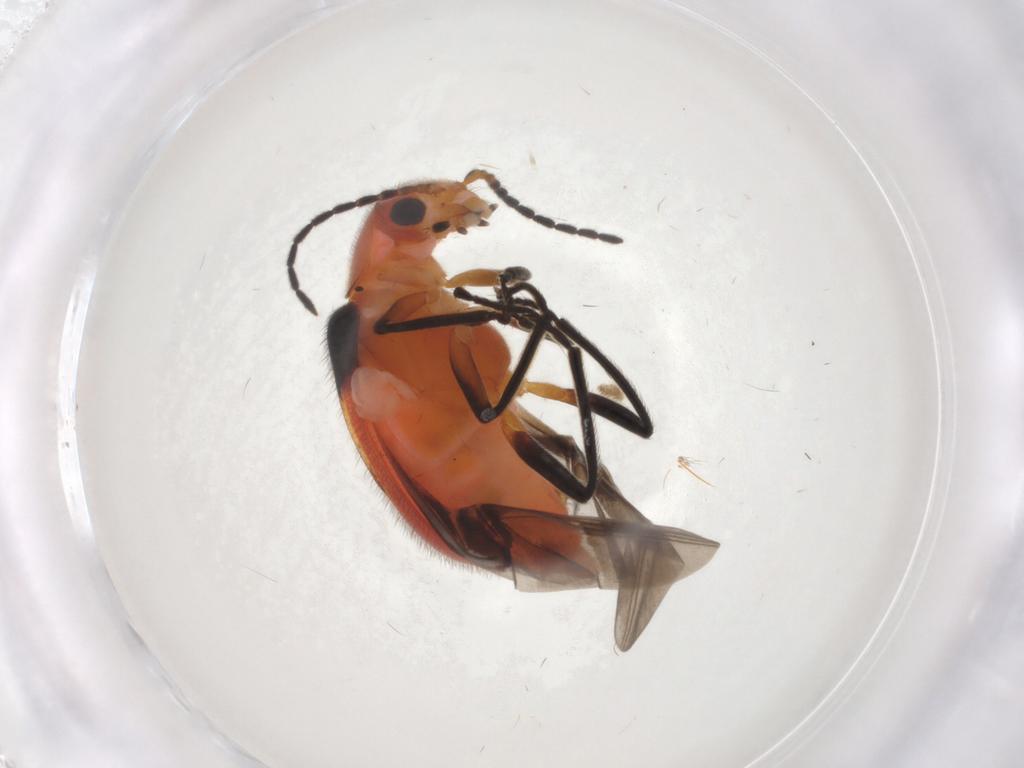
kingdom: Animalia
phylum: Arthropoda
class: Insecta
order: Coleoptera
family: Melyridae
